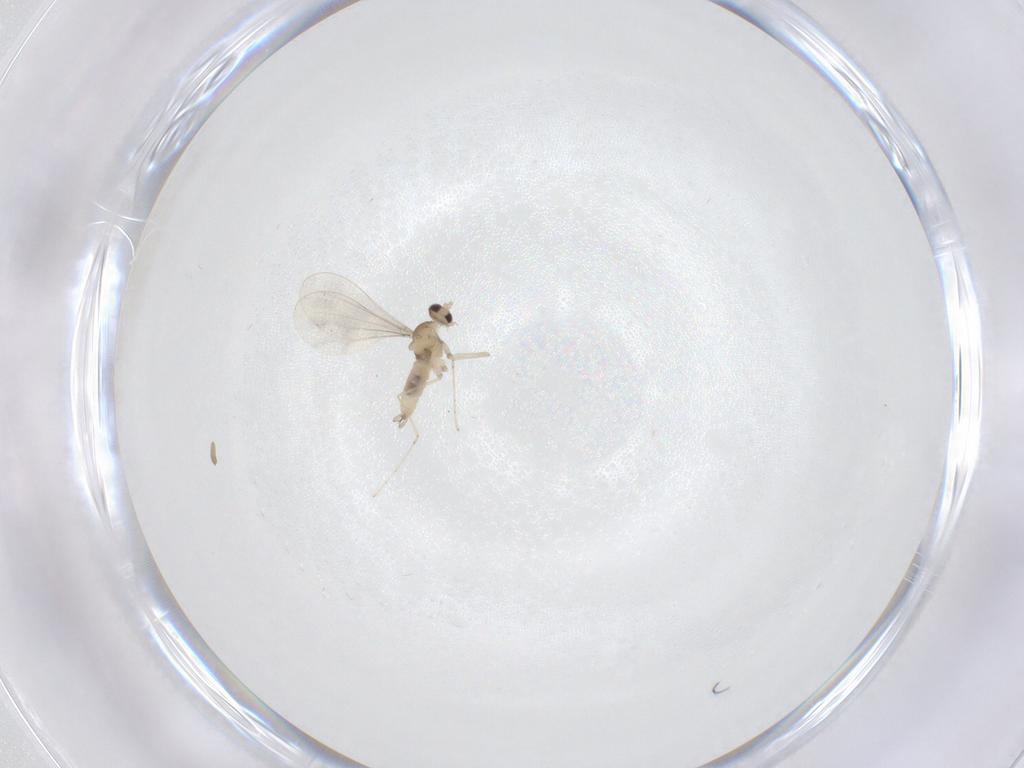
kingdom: Animalia
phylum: Arthropoda
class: Insecta
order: Diptera
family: Cecidomyiidae
